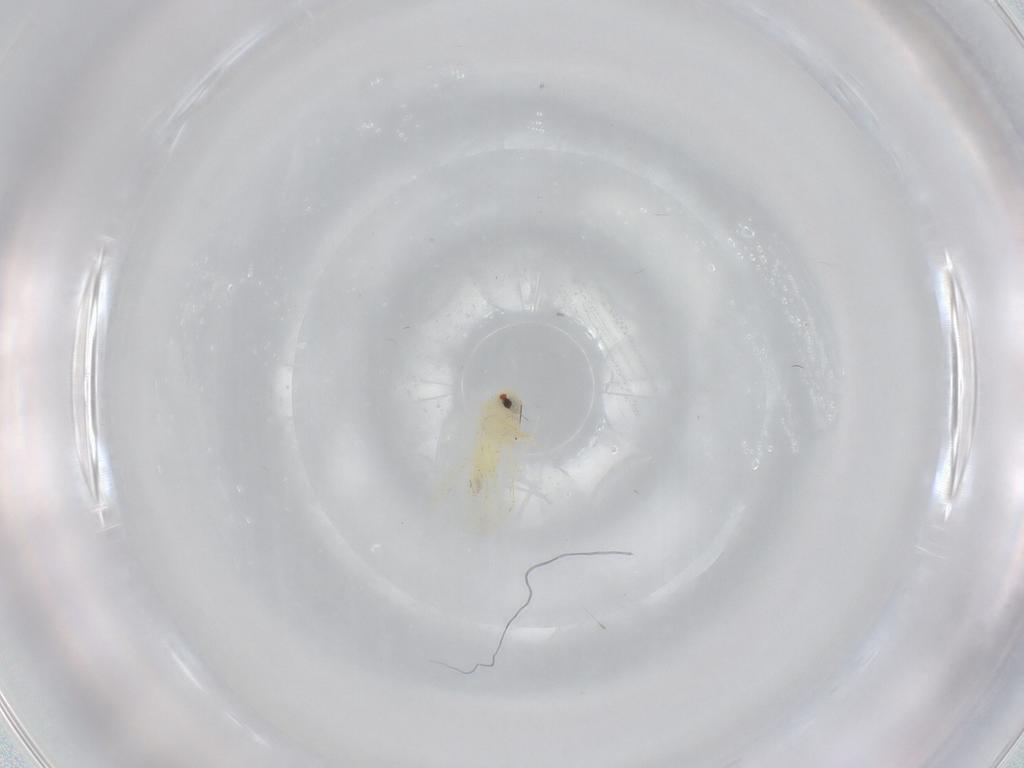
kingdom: Animalia
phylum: Arthropoda
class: Insecta
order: Hemiptera
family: Aleyrodidae
